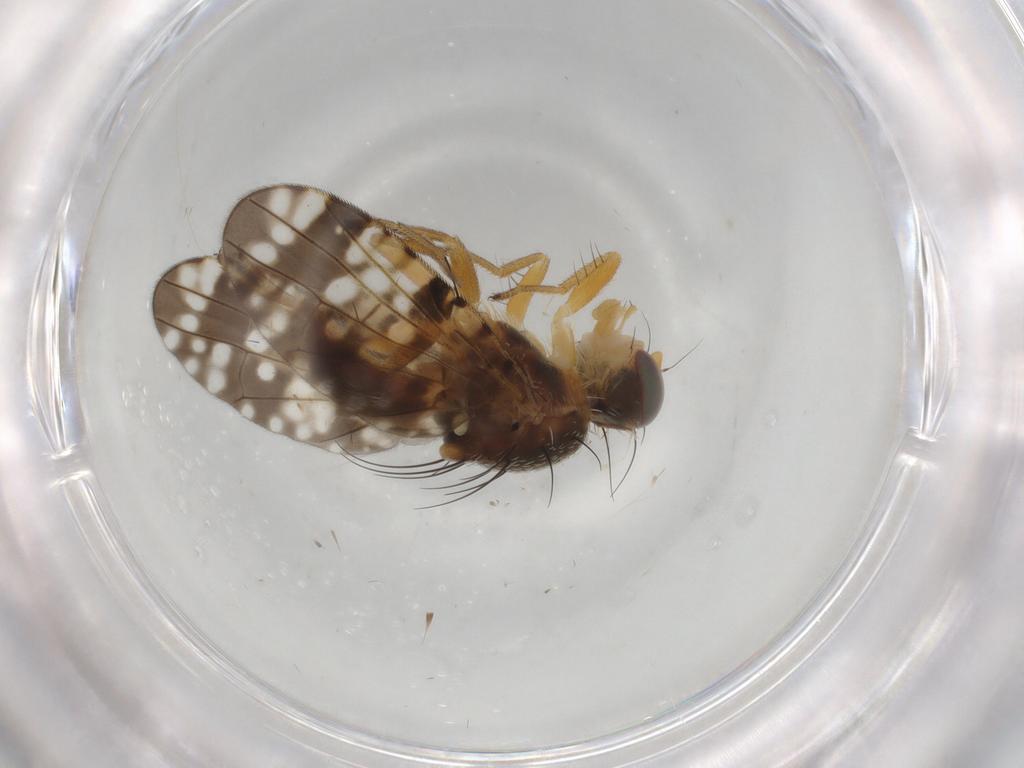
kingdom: Animalia
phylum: Arthropoda
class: Insecta
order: Diptera
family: Tephritidae
